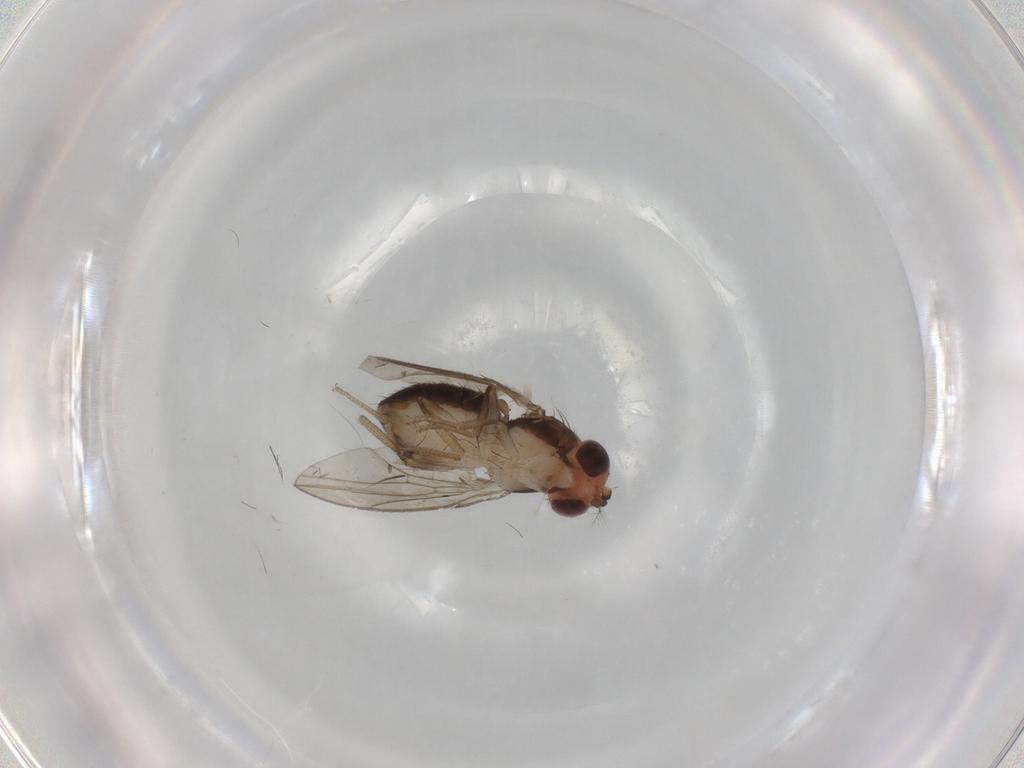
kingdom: Animalia
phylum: Arthropoda
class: Insecta
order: Diptera
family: Drosophilidae
